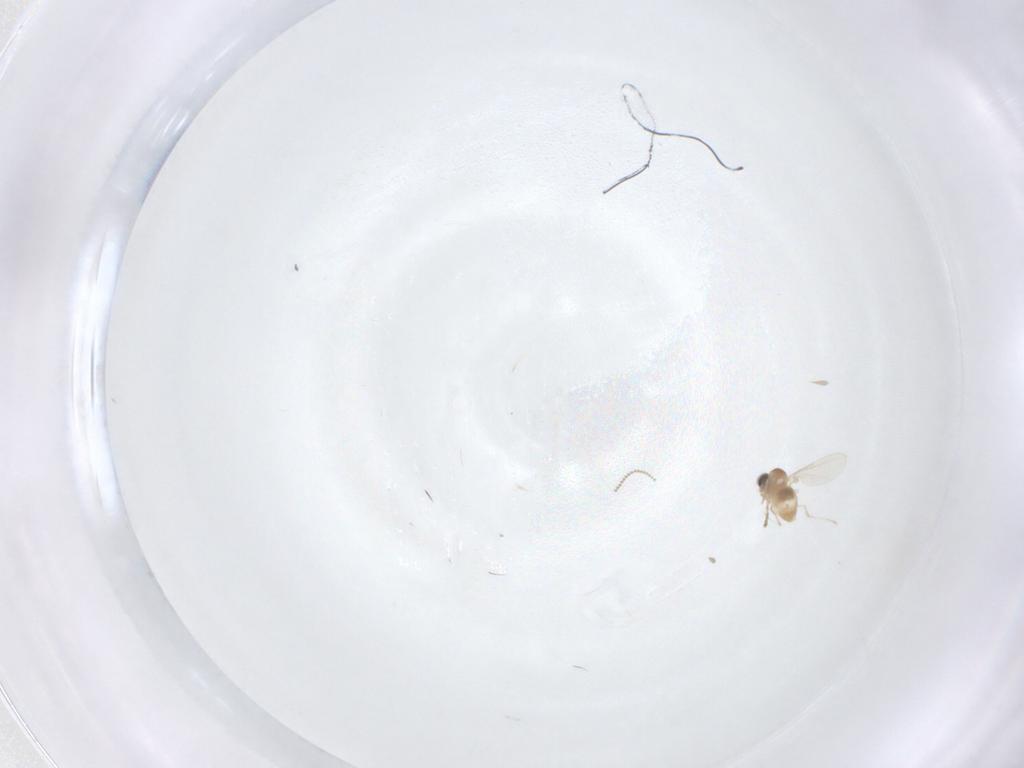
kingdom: Animalia
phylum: Arthropoda
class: Insecta
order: Diptera
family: Cecidomyiidae
